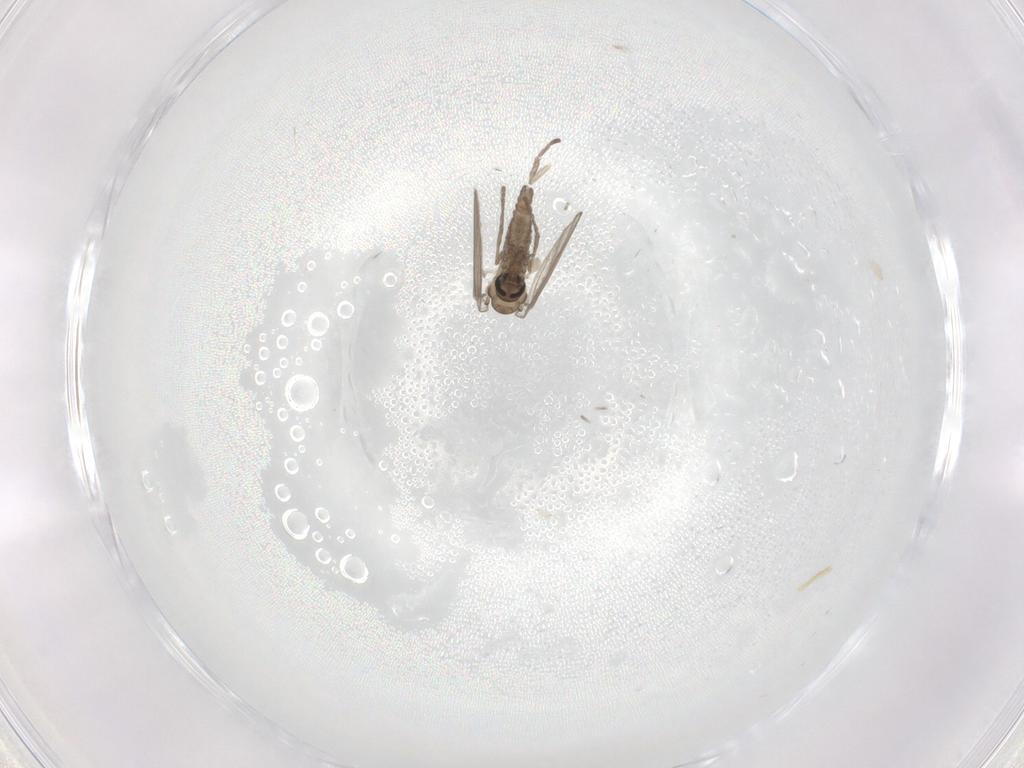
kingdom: Animalia
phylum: Arthropoda
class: Insecta
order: Diptera
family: Psychodidae
